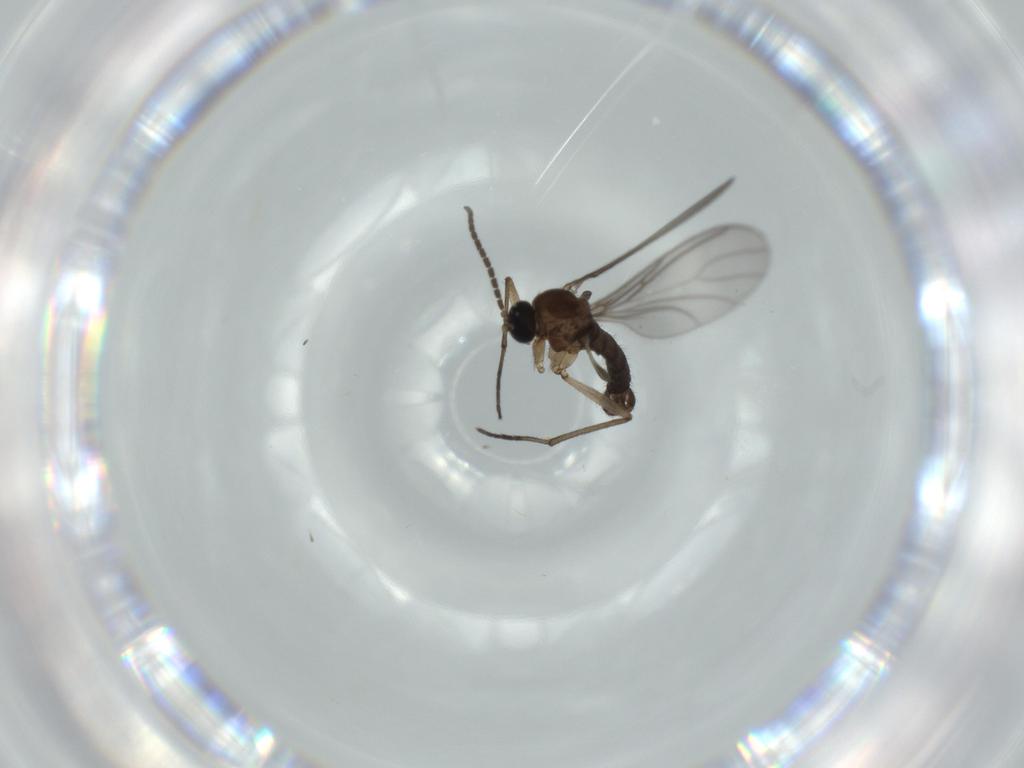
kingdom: Animalia
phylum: Arthropoda
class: Insecta
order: Diptera
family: Sciaridae
